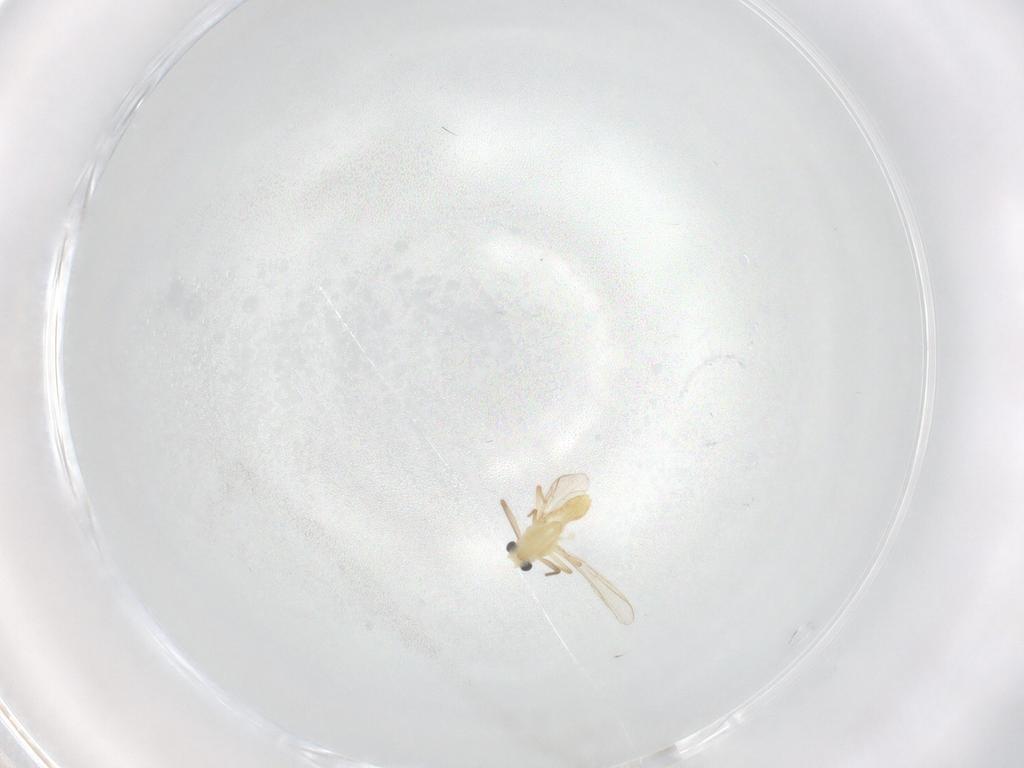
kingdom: Animalia
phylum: Arthropoda
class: Insecta
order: Diptera
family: Chironomidae
